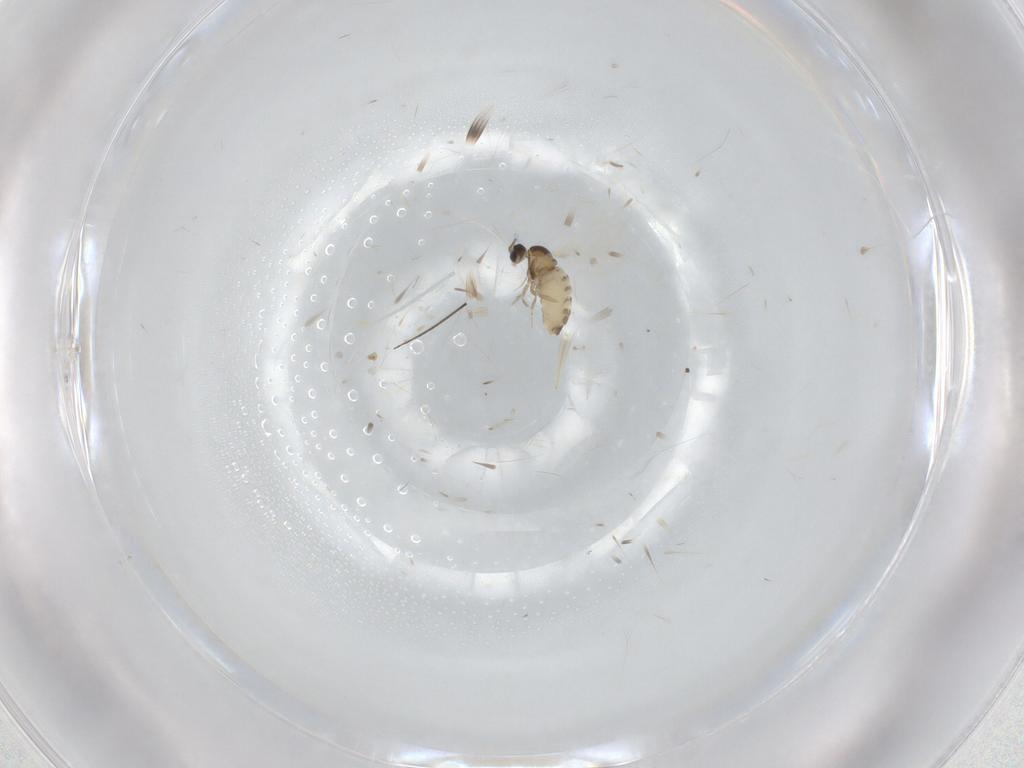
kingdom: Animalia
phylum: Arthropoda
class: Insecta
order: Diptera
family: Cecidomyiidae
